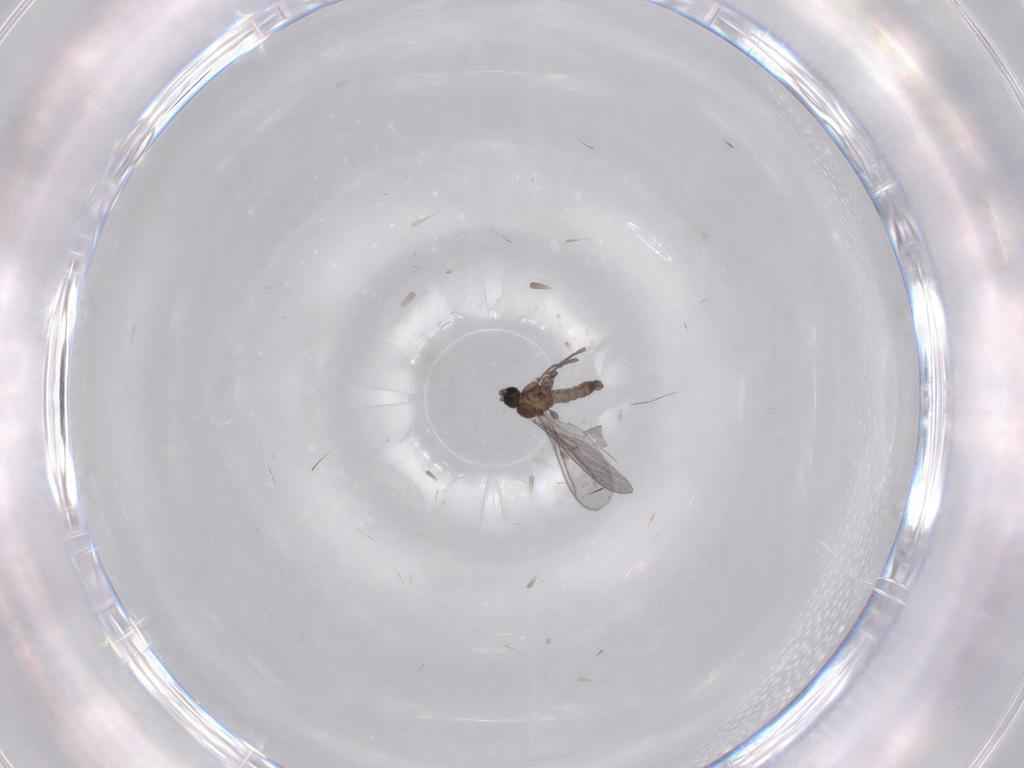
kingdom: Animalia
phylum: Arthropoda
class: Insecta
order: Diptera
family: Sciaridae
